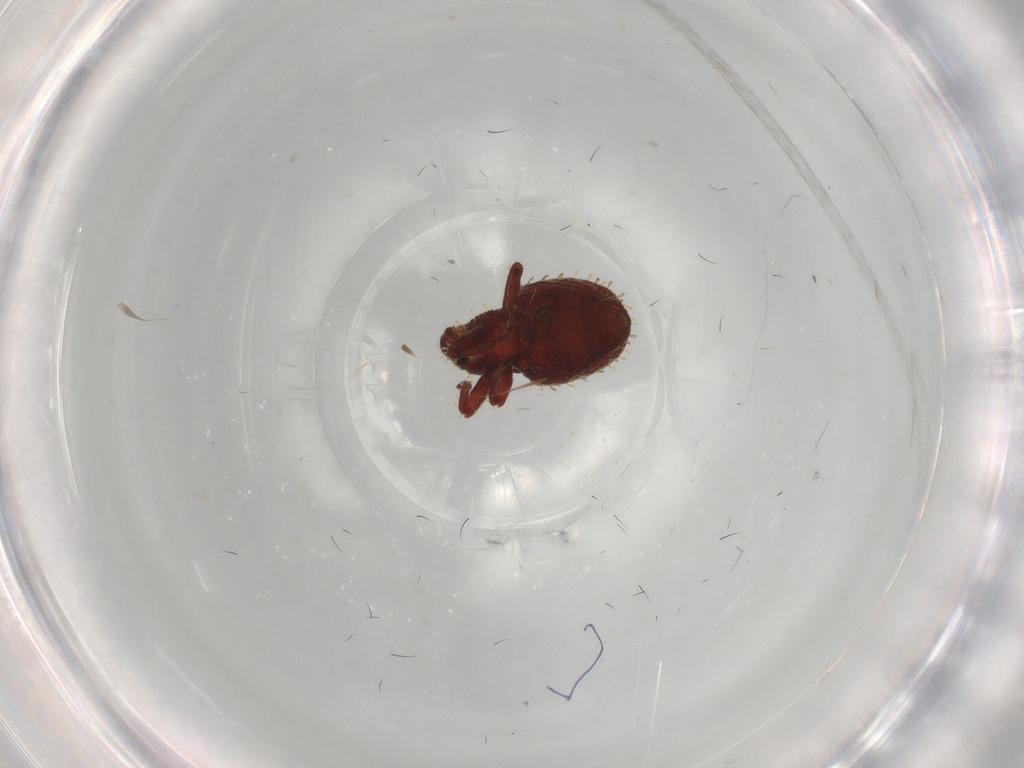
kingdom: Animalia
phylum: Arthropoda
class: Insecta
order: Coleoptera
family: Curculionidae
